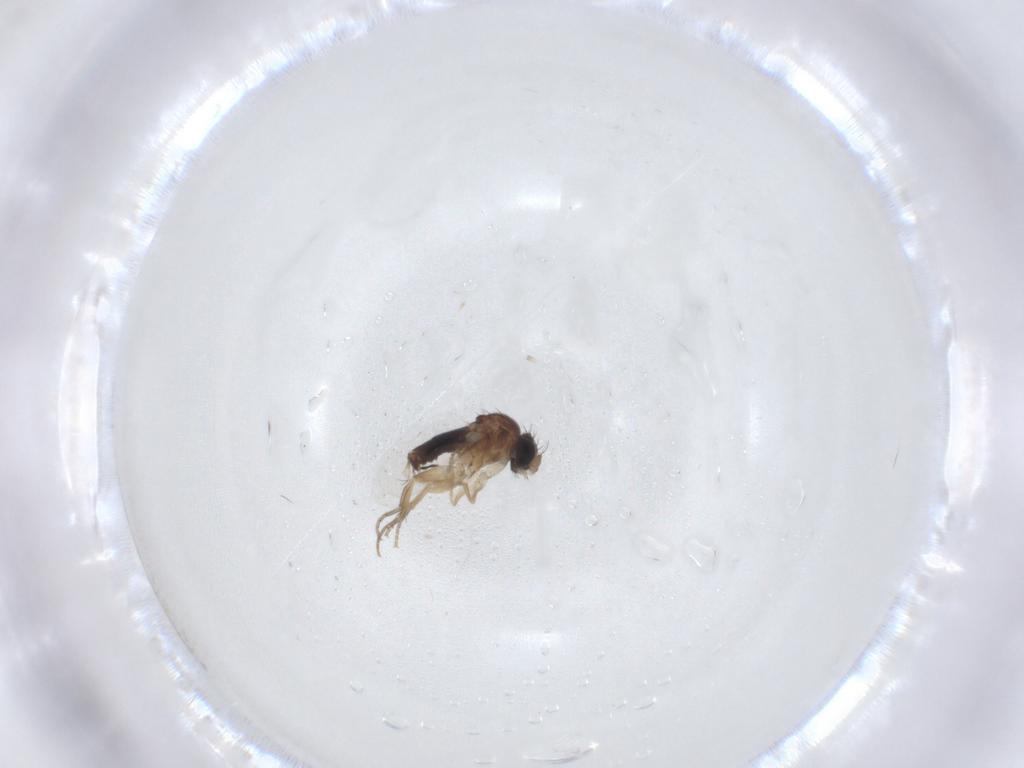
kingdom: Animalia
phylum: Arthropoda
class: Insecta
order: Diptera
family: Phoridae
